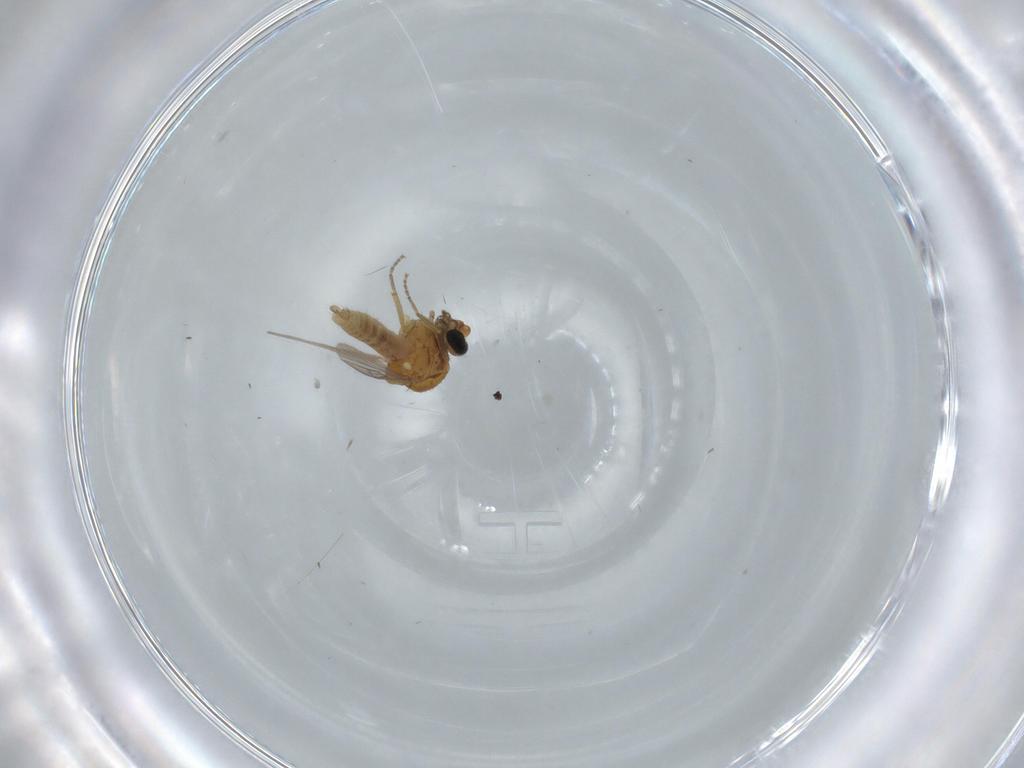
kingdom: Animalia
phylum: Arthropoda
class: Insecta
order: Diptera
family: Ceratopogonidae
